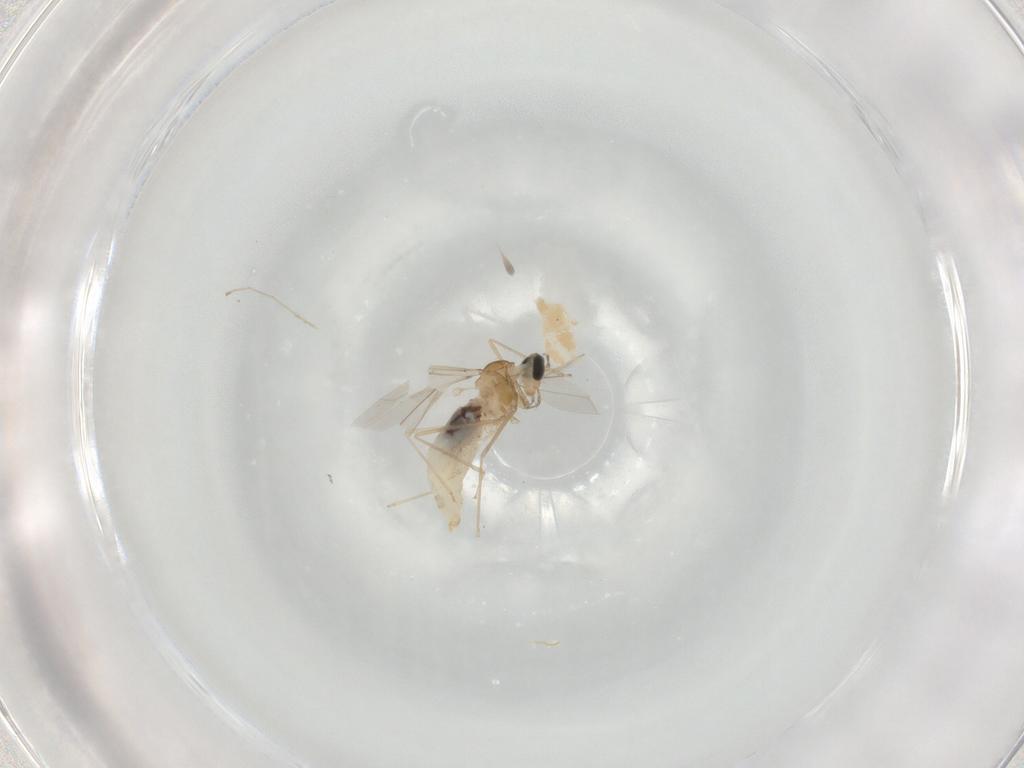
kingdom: Animalia
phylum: Arthropoda
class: Insecta
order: Diptera
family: Cecidomyiidae
